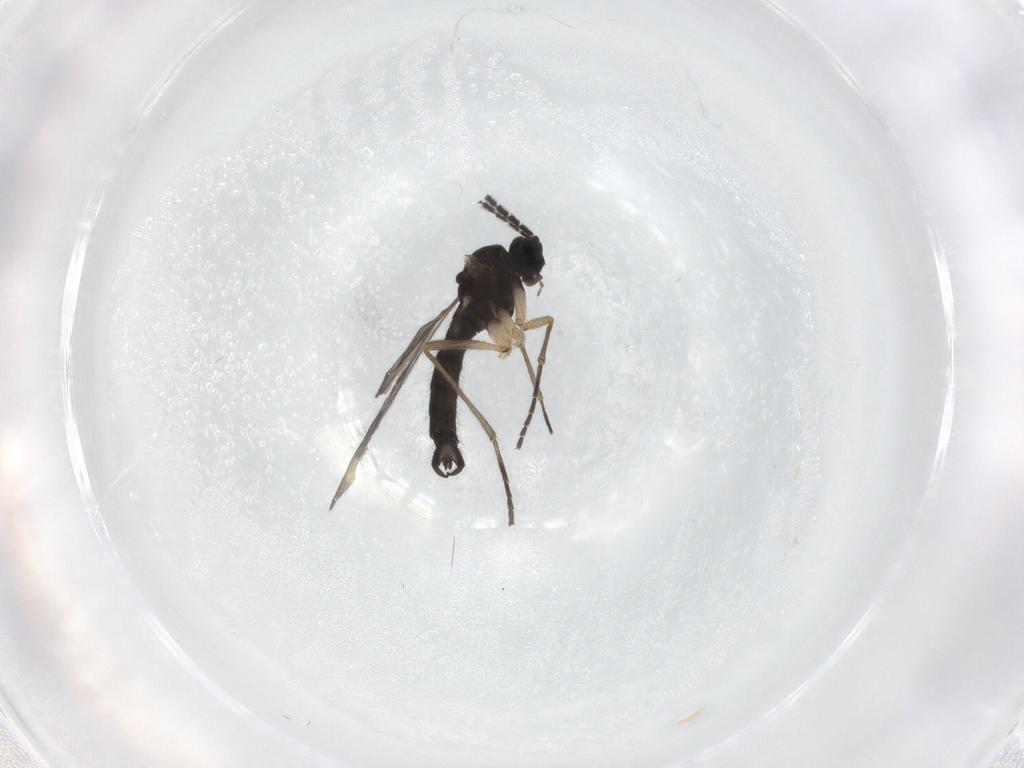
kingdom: Animalia
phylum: Arthropoda
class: Insecta
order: Diptera
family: Sciaridae
